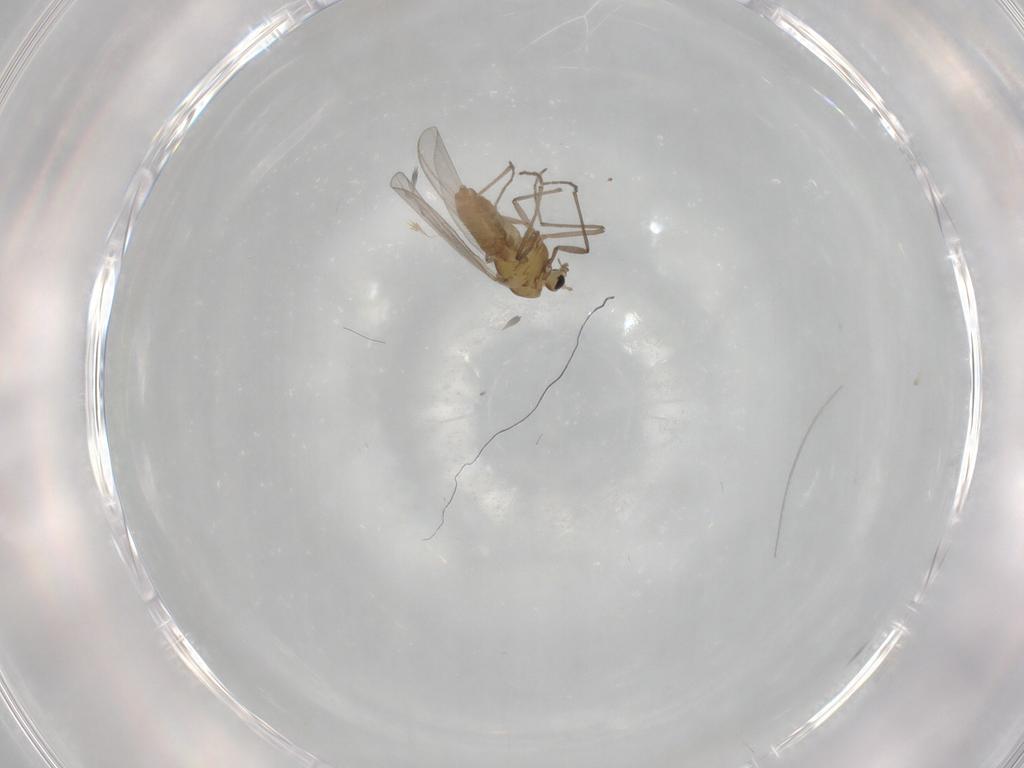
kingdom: Animalia
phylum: Arthropoda
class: Insecta
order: Diptera
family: Chironomidae
